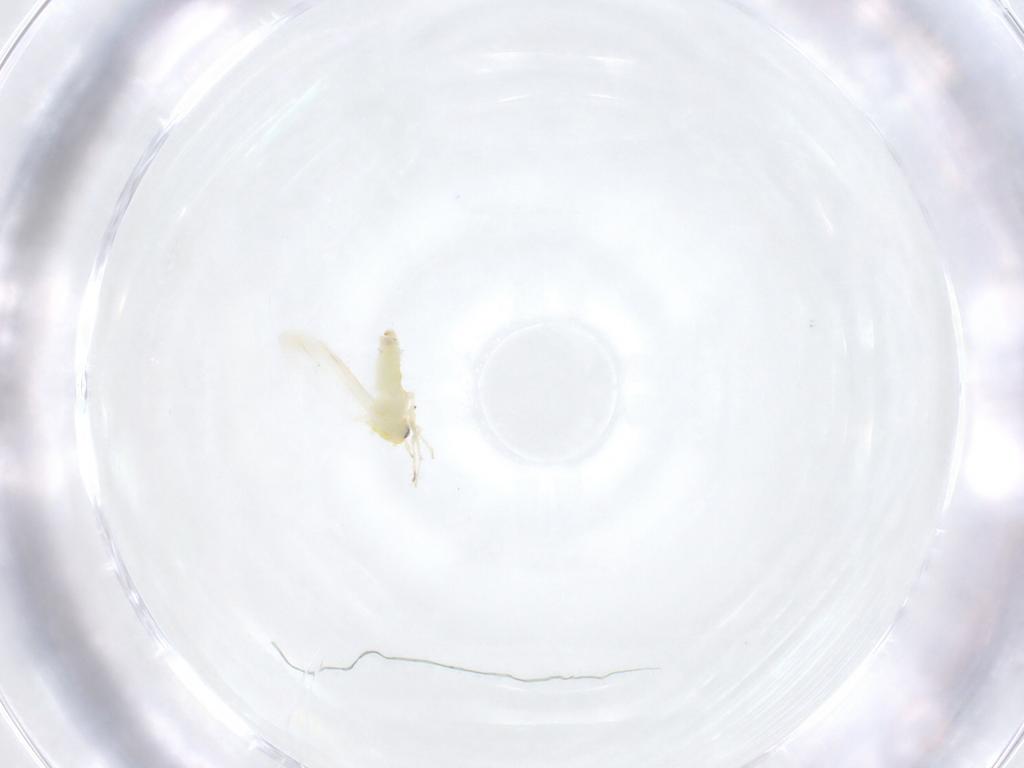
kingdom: Animalia
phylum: Arthropoda
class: Insecta
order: Hemiptera
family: Aleyrodidae
